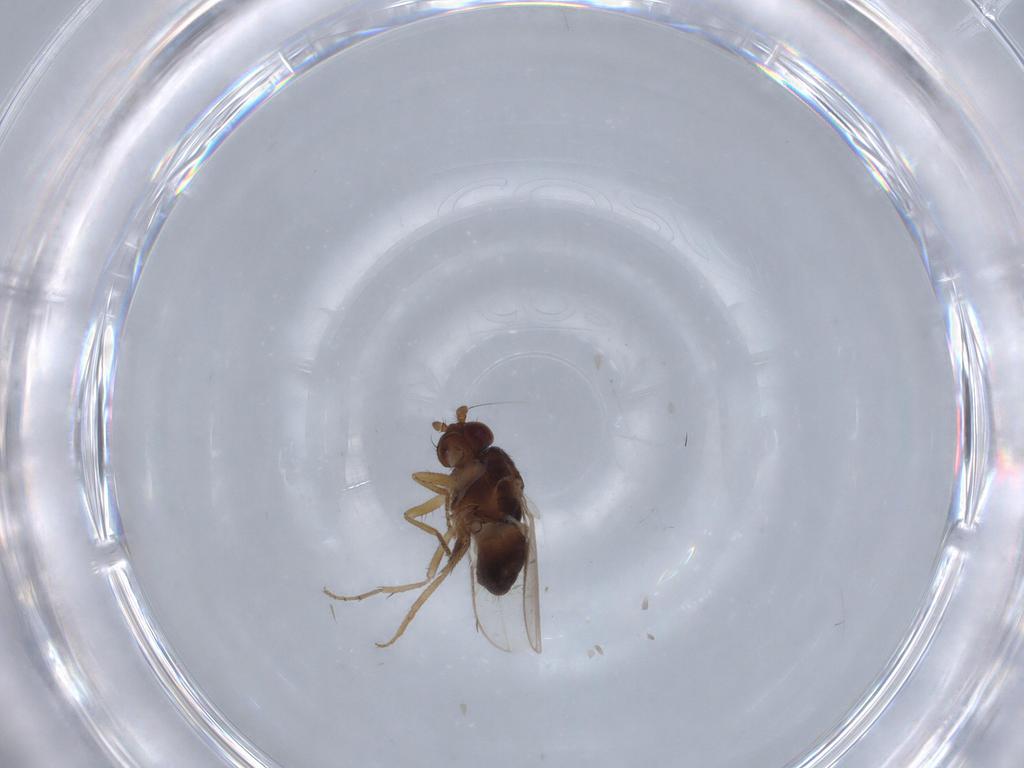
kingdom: Animalia
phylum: Arthropoda
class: Insecta
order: Diptera
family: Sphaeroceridae
